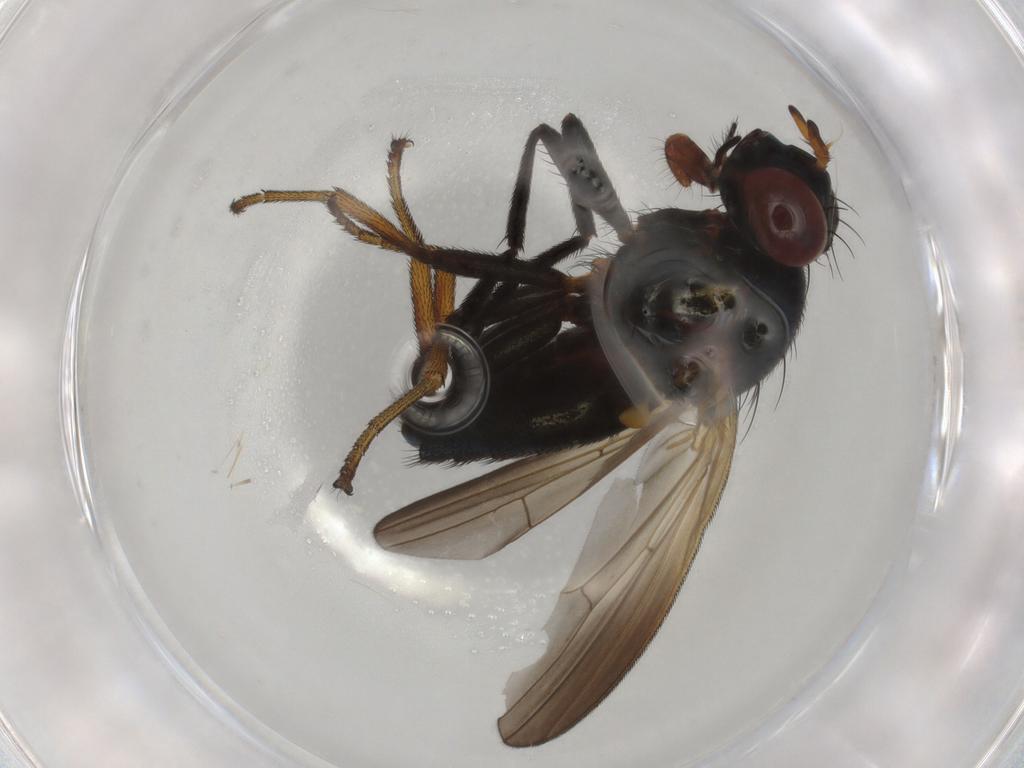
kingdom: Animalia
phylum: Arthropoda
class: Insecta
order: Diptera
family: Lauxaniidae
